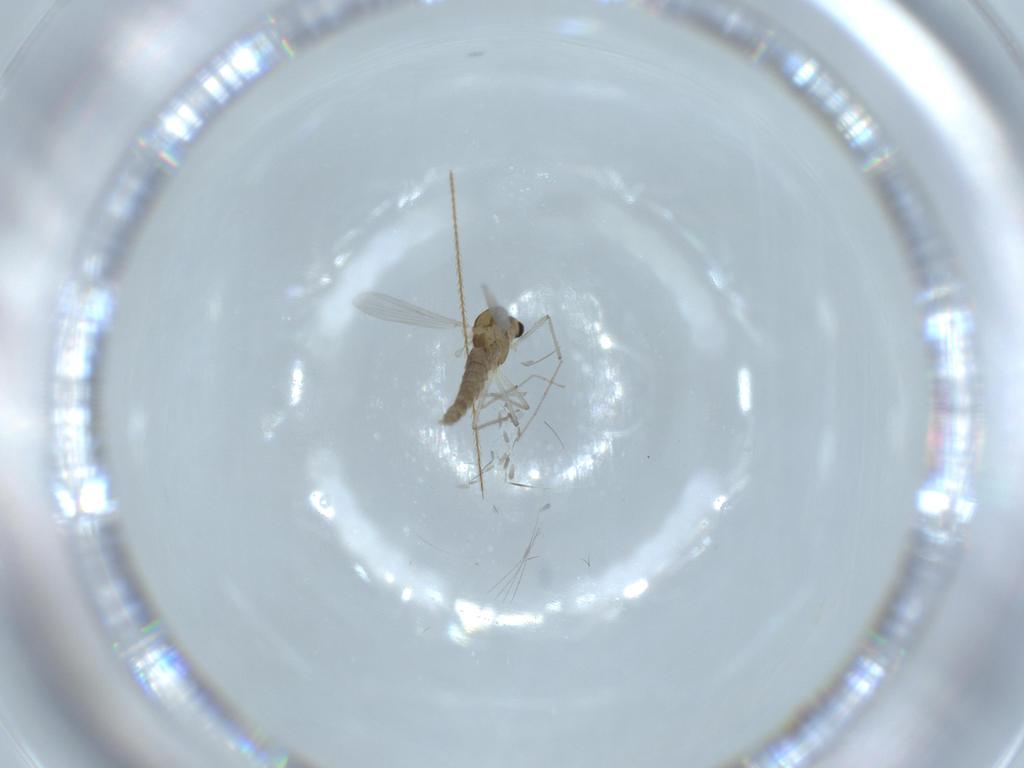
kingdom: Animalia
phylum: Arthropoda
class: Insecta
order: Diptera
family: Chironomidae
